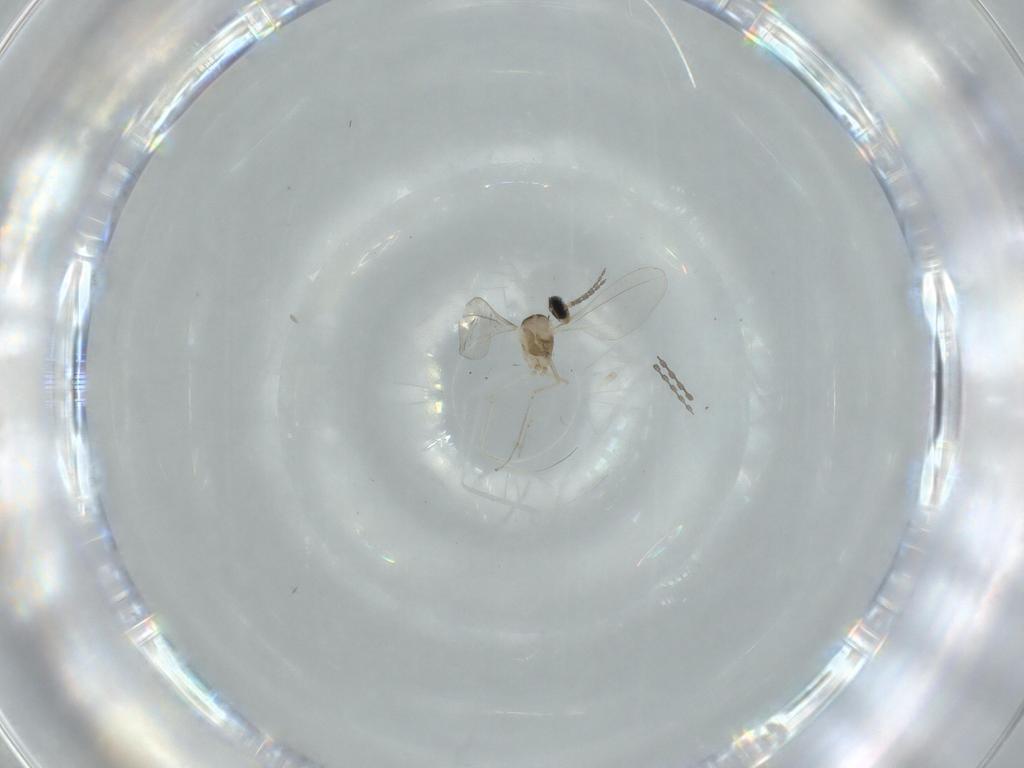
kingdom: Animalia
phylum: Arthropoda
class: Insecta
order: Diptera
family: Cecidomyiidae
